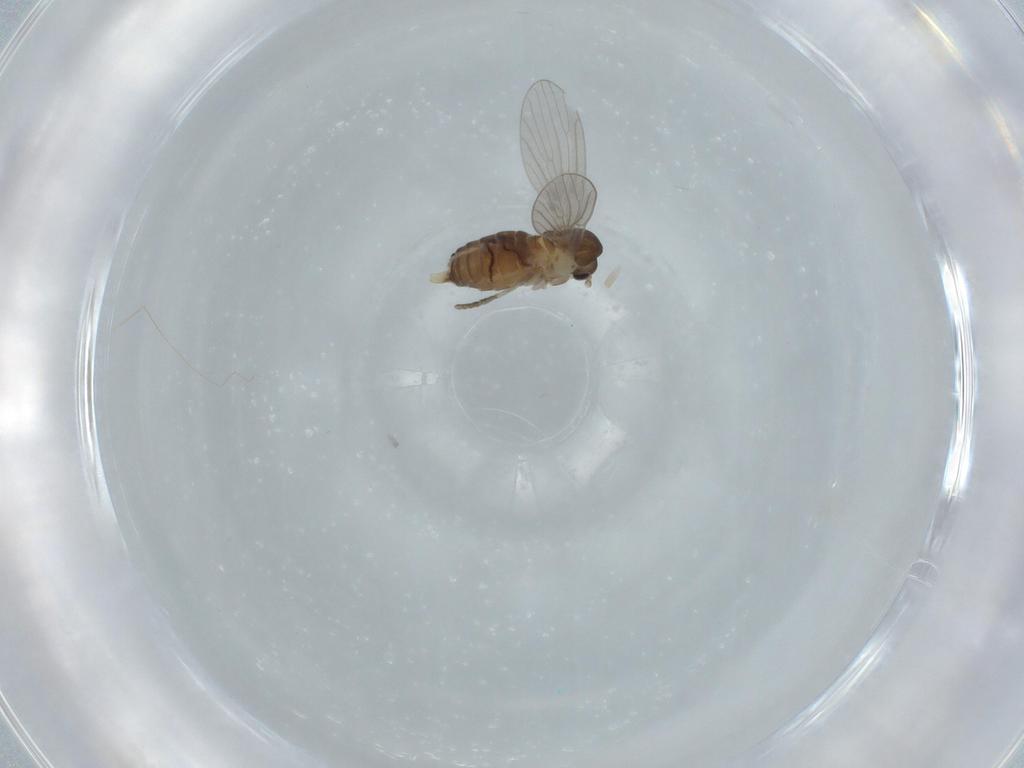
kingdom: Animalia
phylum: Arthropoda
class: Insecta
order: Diptera
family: Psychodidae
